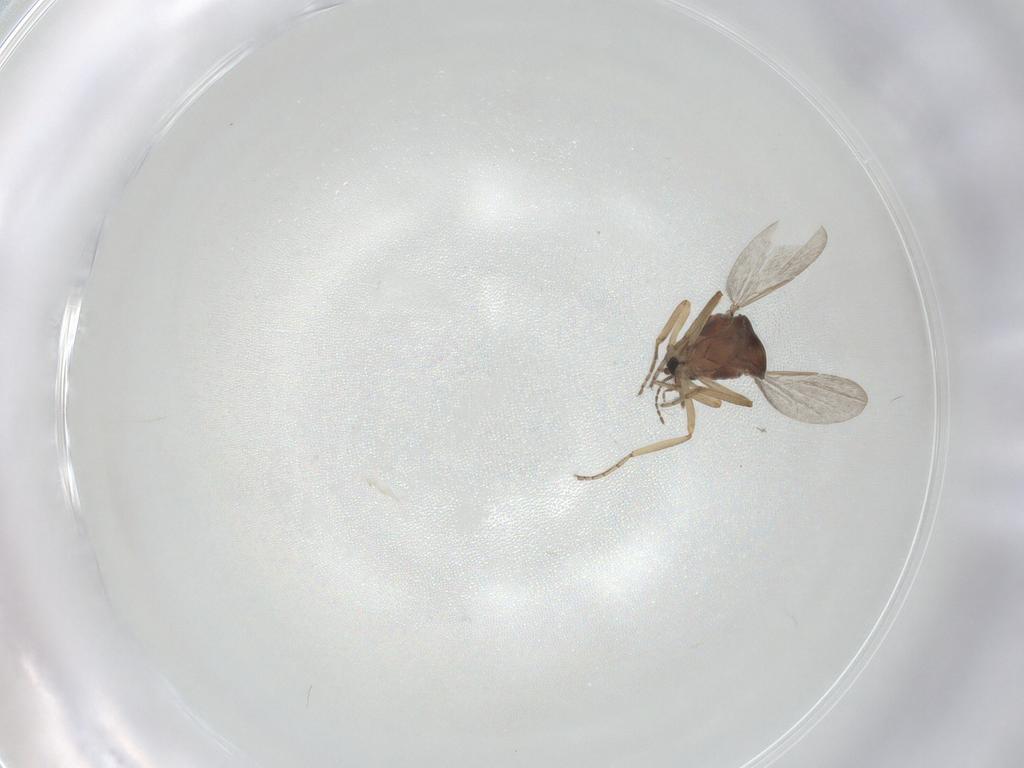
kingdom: Animalia
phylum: Arthropoda
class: Insecta
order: Diptera
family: Ceratopogonidae
